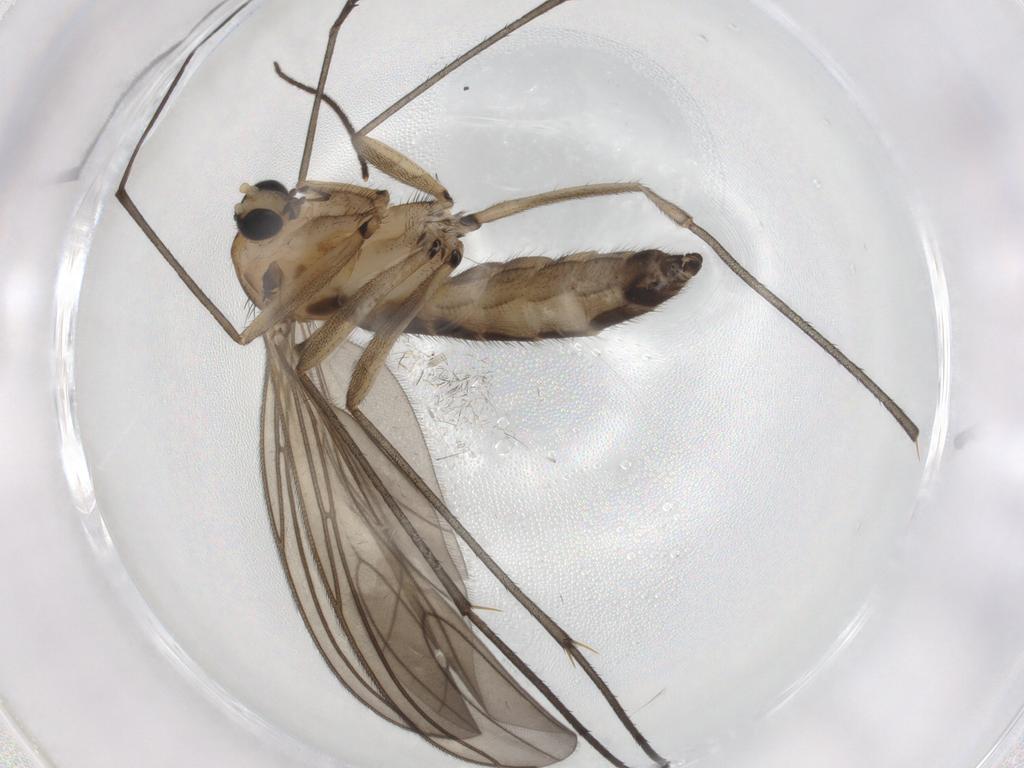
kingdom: Animalia
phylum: Arthropoda
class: Insecta
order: Diptera
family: Sciaridae
